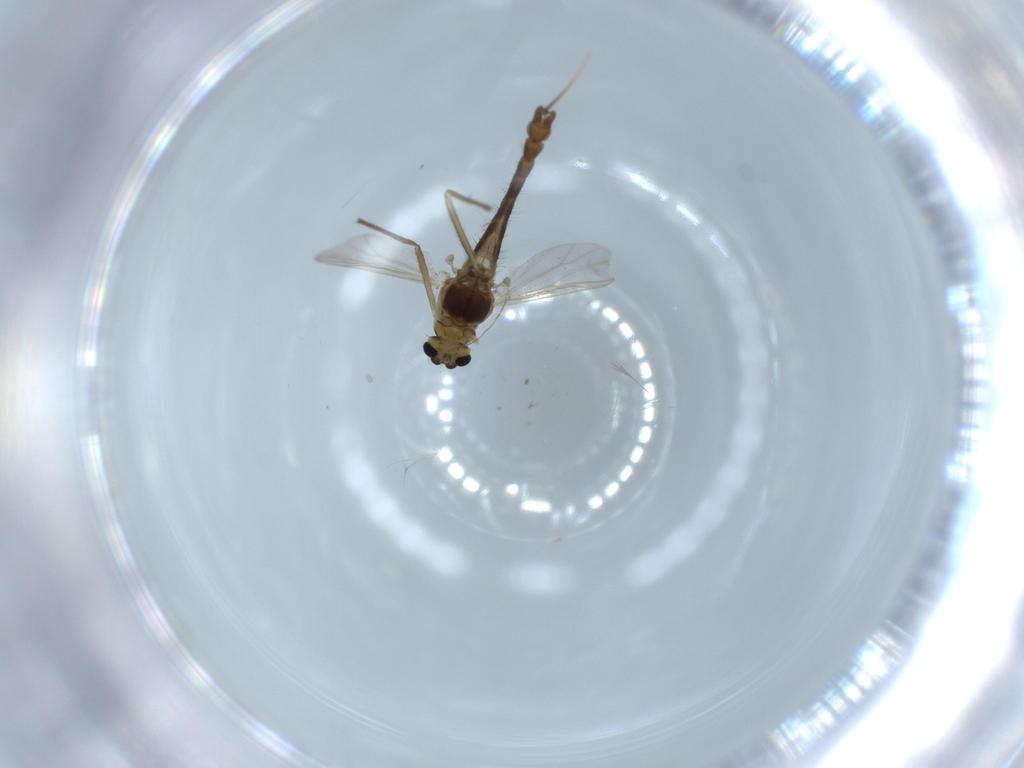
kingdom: Animalia
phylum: Arthropoda
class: Insecta
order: Diptera
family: Chironomidae
